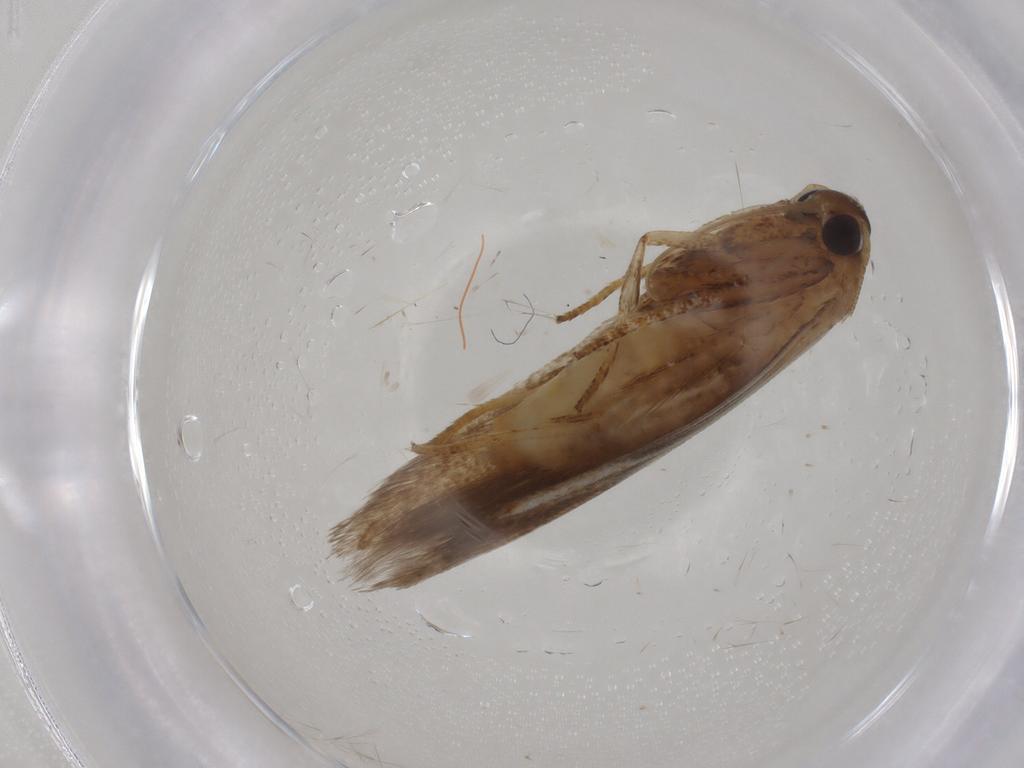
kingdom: Animalia
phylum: Arthropoda
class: Insecta
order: Lepidoptera
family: Blastobasidae
